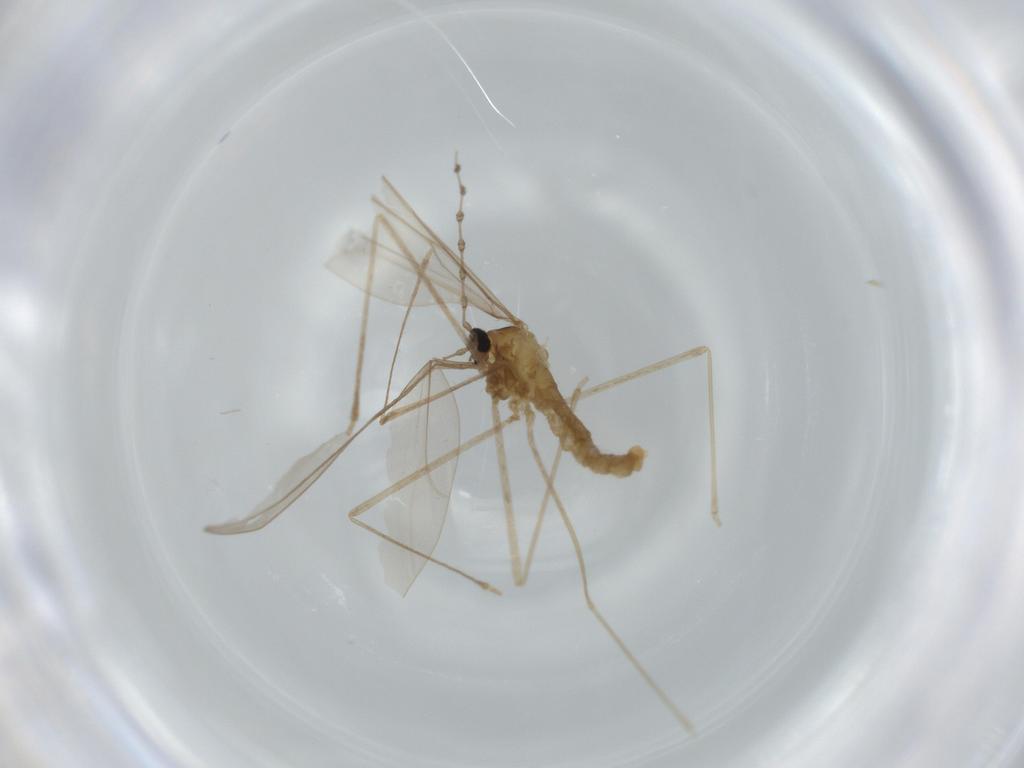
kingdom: Animalia
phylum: Arthropoda
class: Insecta
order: Diptera
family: Cecidomyiidae
